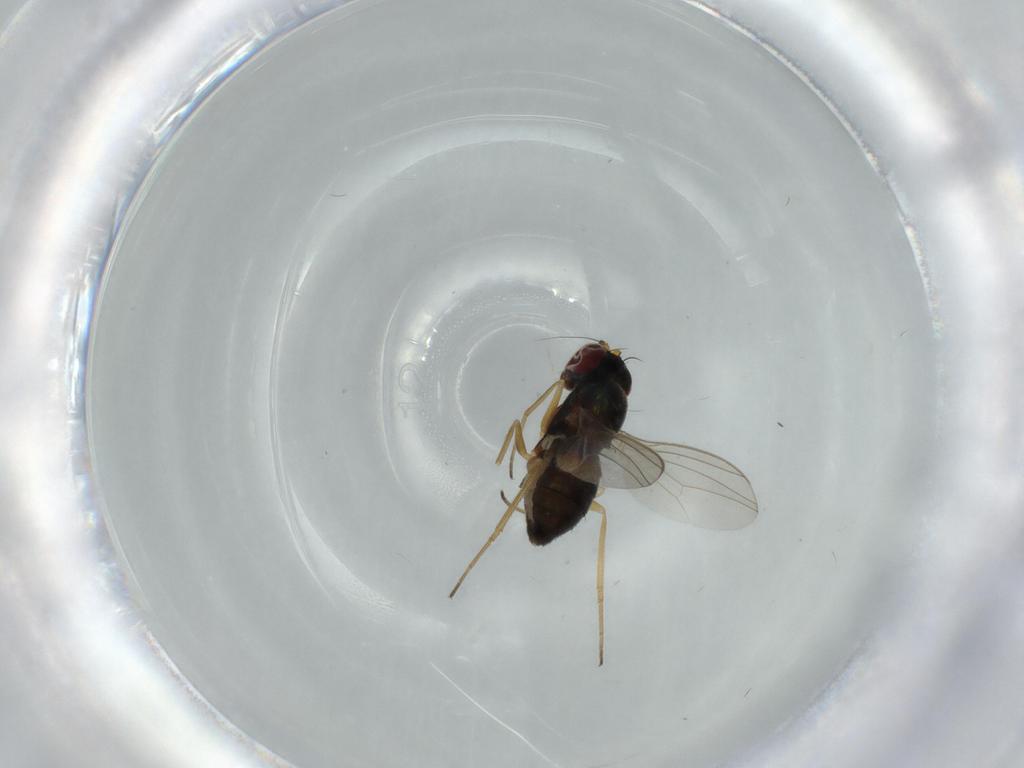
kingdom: Animalia
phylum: Arthropoda
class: Insecta
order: Diptera
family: Dolichopodidae
